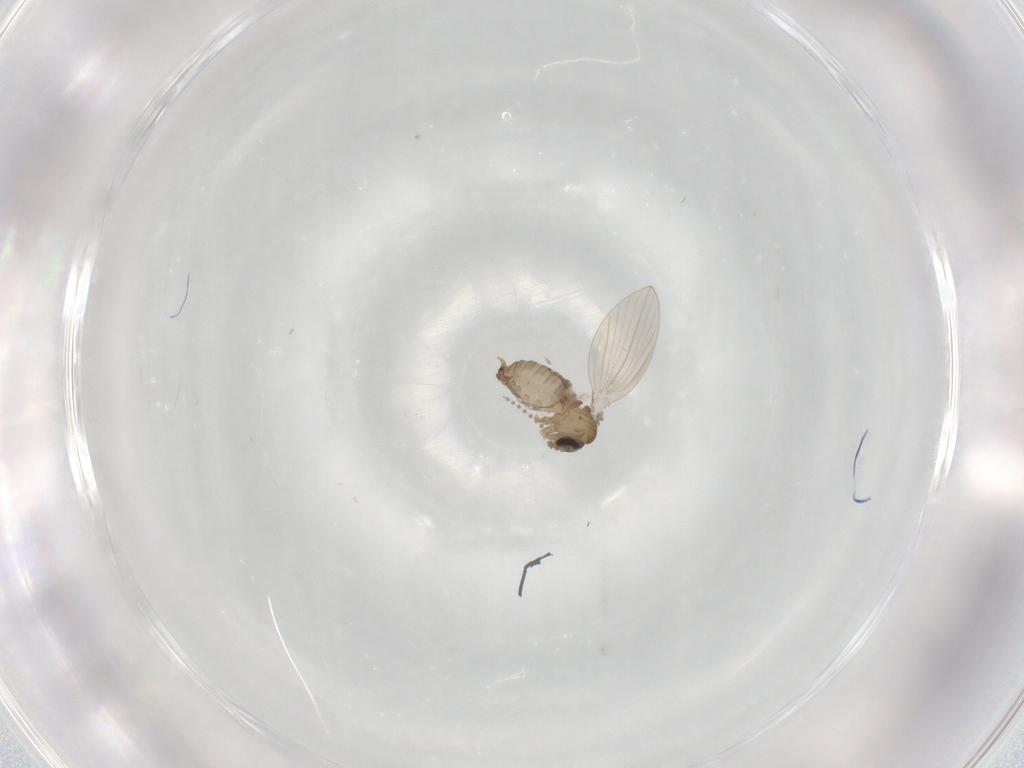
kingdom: Animalia
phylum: Arthropoda
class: Insecta
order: Diptera
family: Psychodidae
